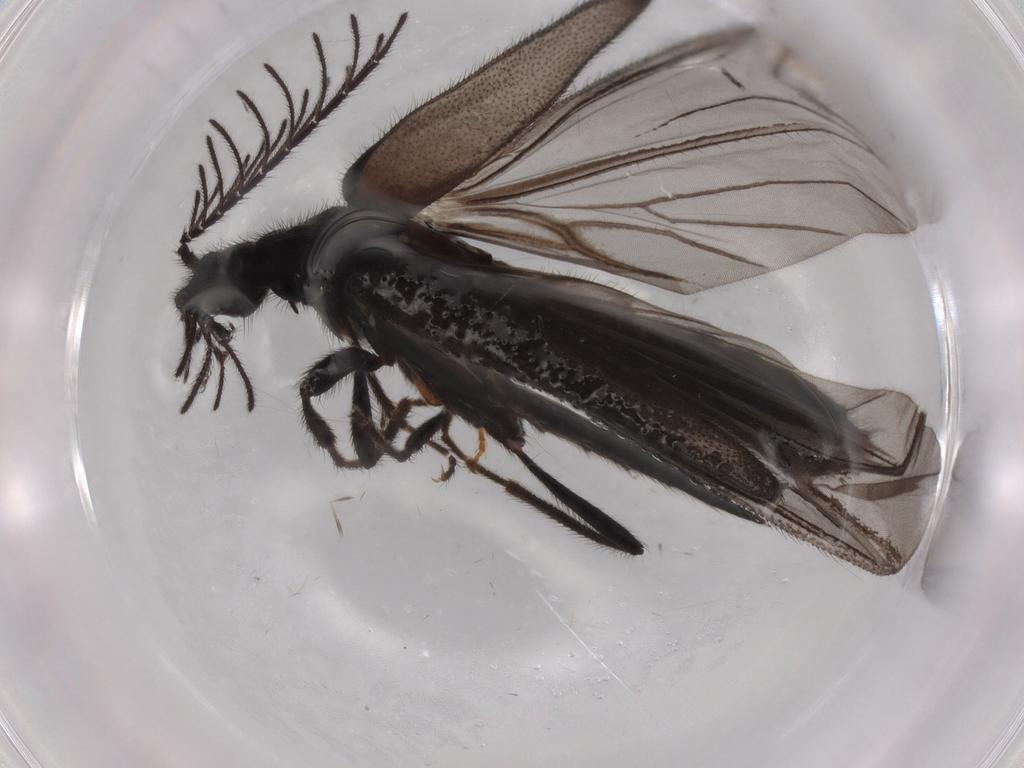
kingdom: Animalia
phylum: Arthropoda
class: Insecta
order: Coleoptera
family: Curculionidae
